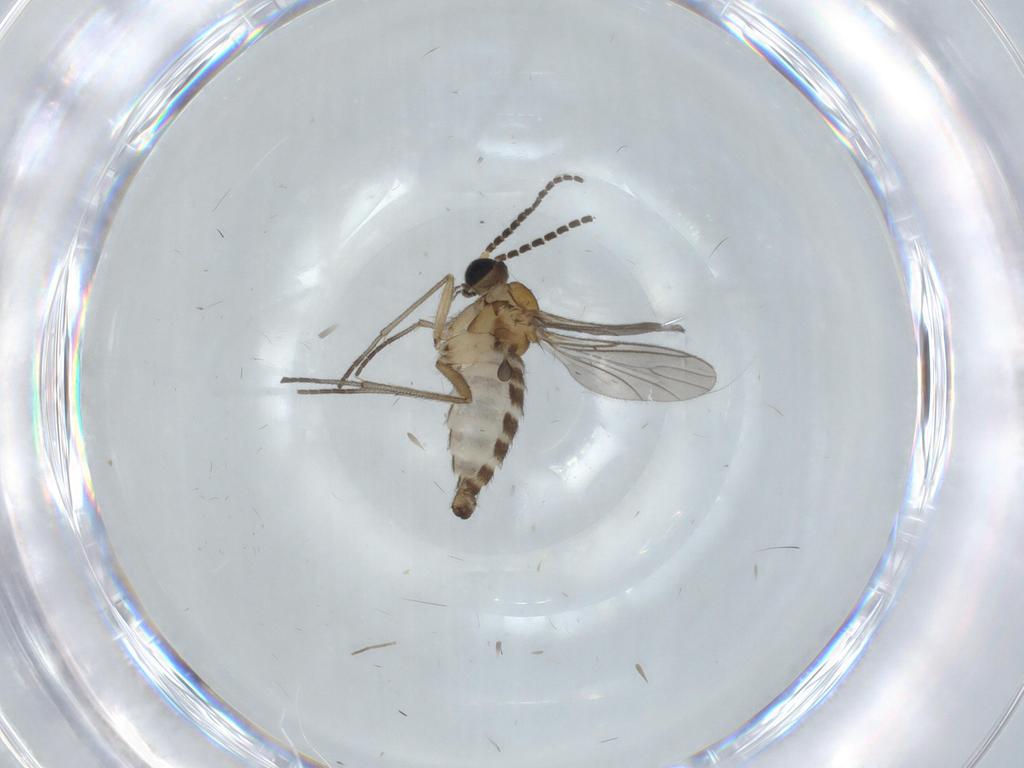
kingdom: Animalia
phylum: Arthropoda
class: Insecta
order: Diptera
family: Sciaridae
